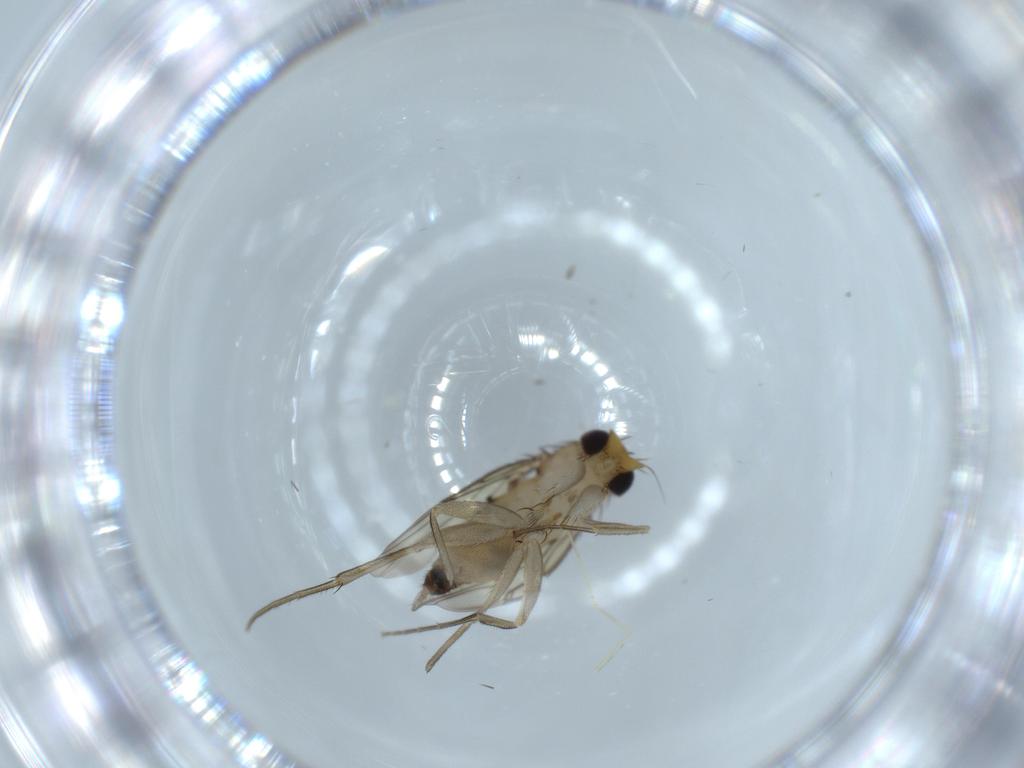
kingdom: Animalia
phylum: Arthropoda
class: Insecta
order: Diptera
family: Phoridae
